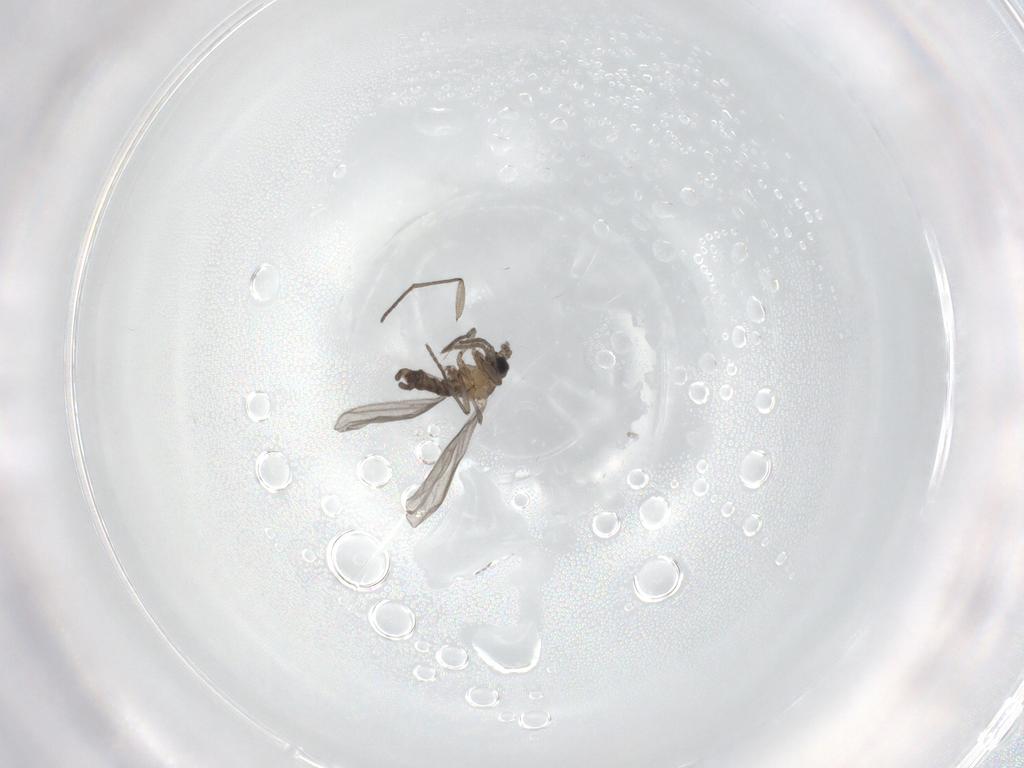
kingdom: Animalia
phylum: Arthropoda
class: Insecta
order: Diptera
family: Sciaridae
